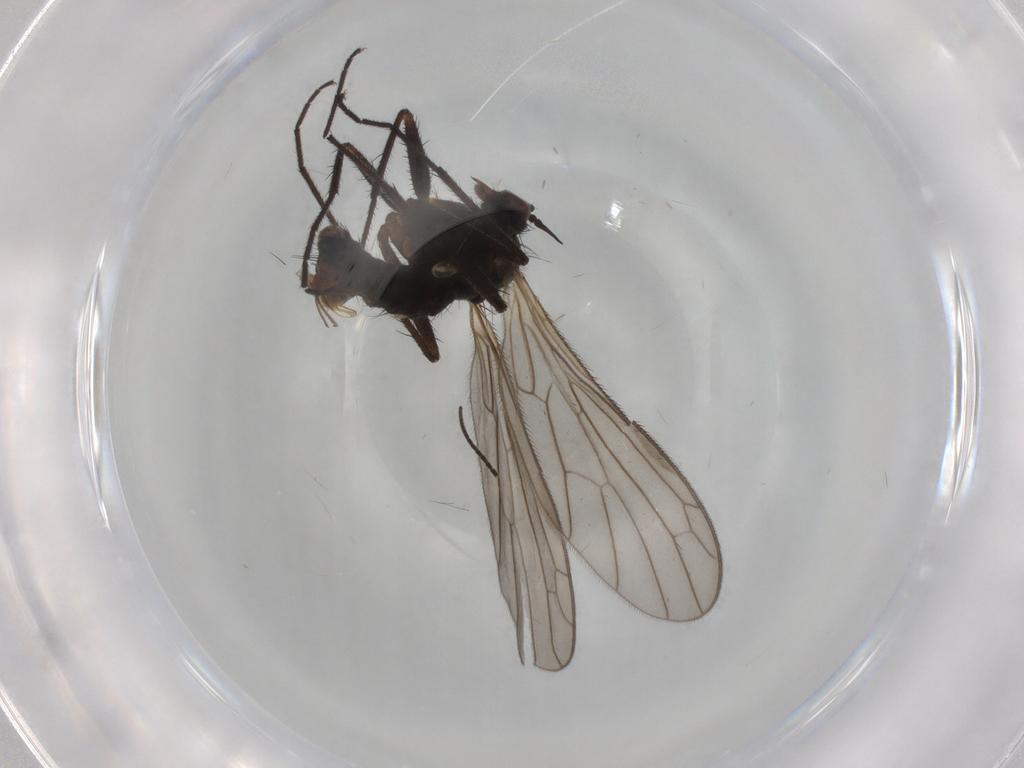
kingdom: Animalia
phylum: Arthropoda
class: Insecta
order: Diptera
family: Empididae
